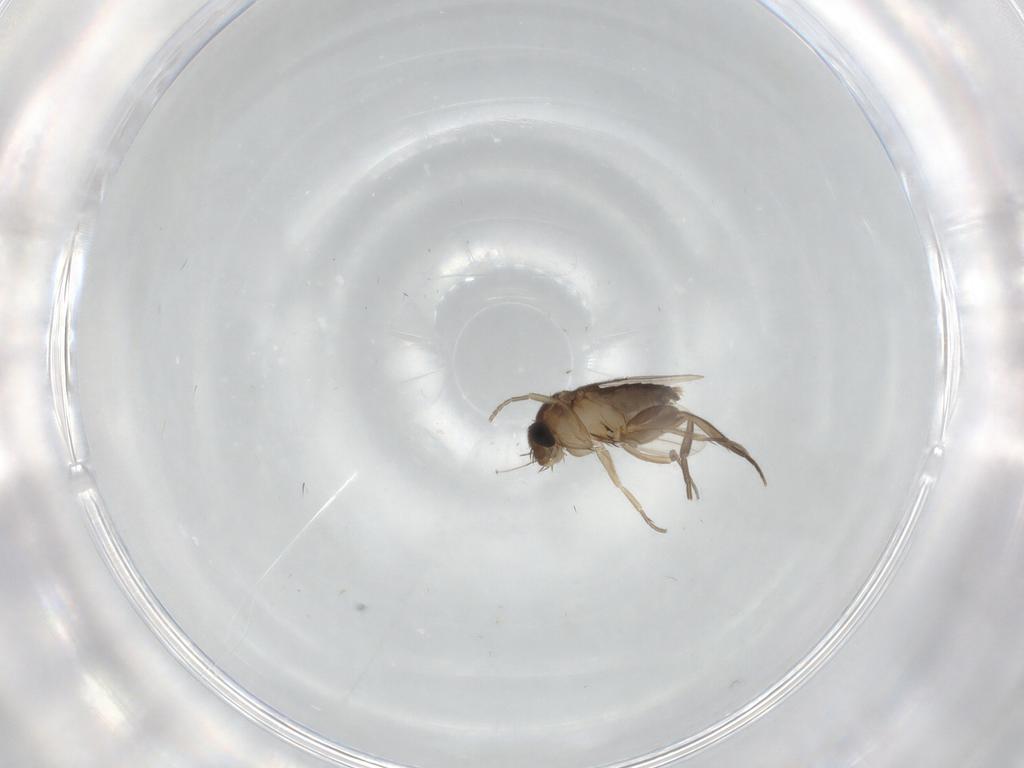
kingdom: Animalia
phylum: Arthropoda
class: Insecta
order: Diptera
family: Phoridae
